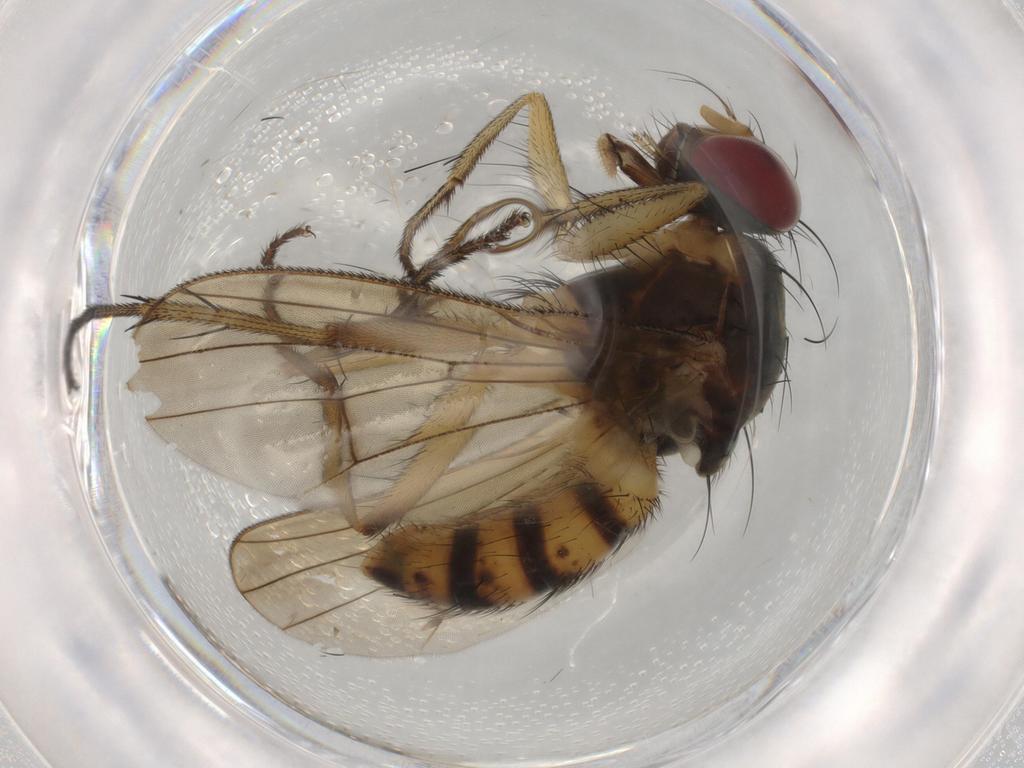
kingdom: Animalia
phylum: Arthropoda
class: Insecta
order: Diptera
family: Muscidae
